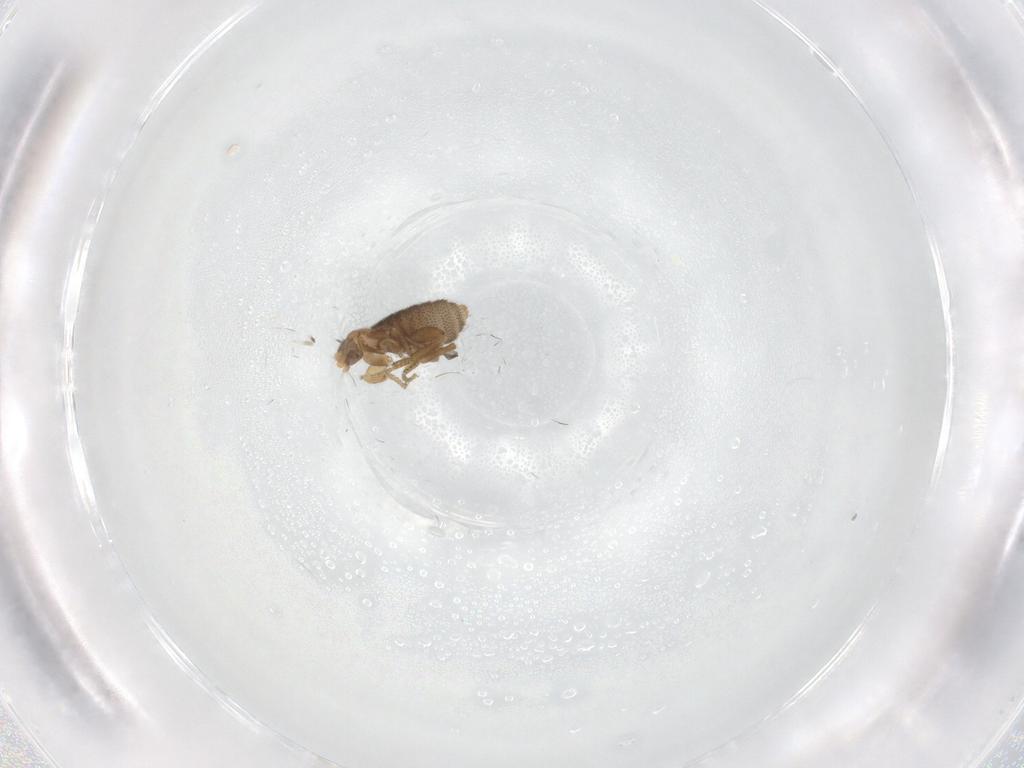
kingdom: Animalia
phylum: Arthropoda
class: Insecta
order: Diptera
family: Phoridae
